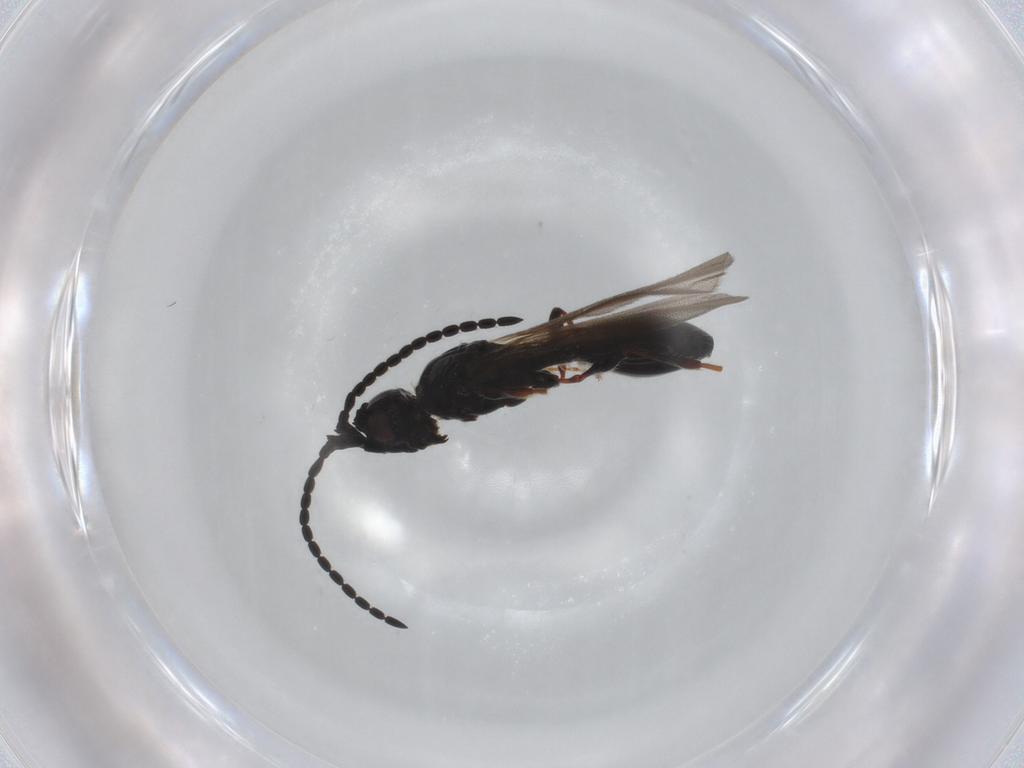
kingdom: Animalia
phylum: Arthropoda
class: Insecta
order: Hymenoptera
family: Diapriidae
